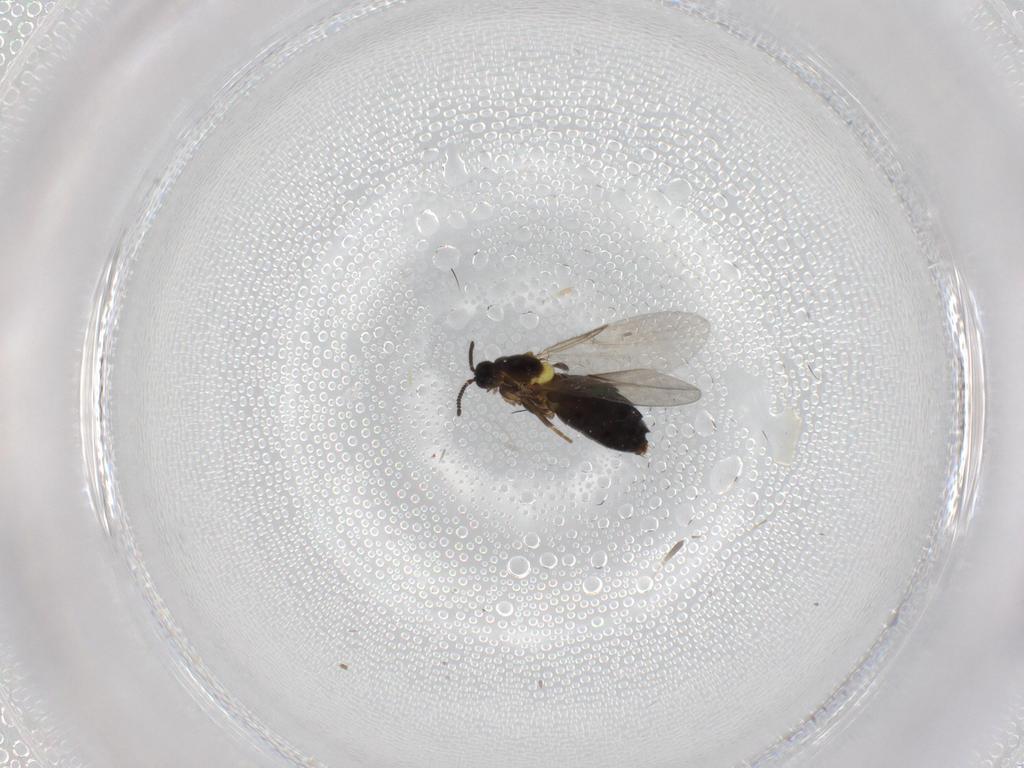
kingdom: Animalia
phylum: Arthropoda
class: Insecta
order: Diptera
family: Scatopsidae
